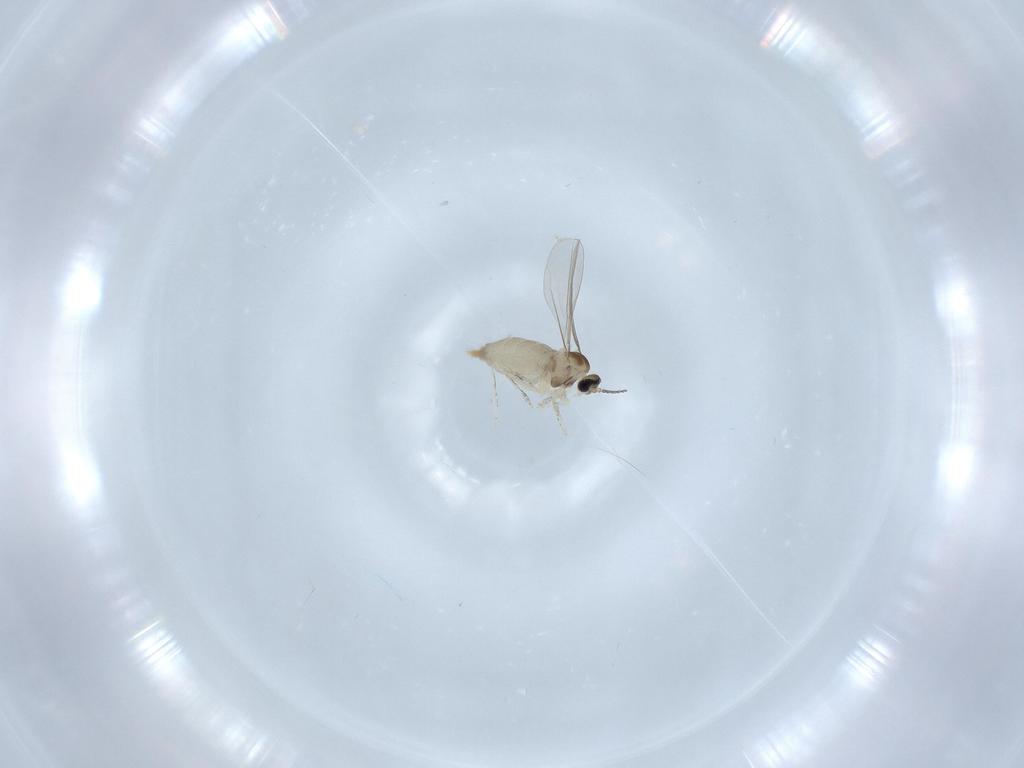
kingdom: Animalia
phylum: Arthropoda
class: Insecta
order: Diptera
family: Sphaeroceridae
